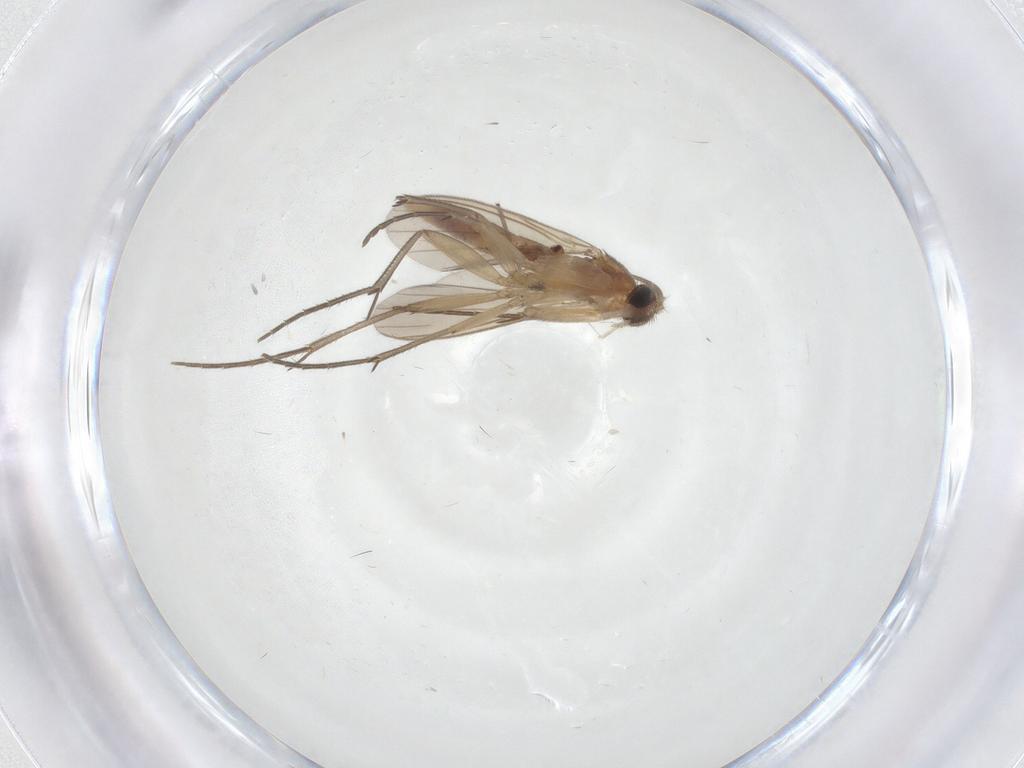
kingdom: Animalia
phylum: Arthropoda
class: Insecta
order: Diptera
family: Mycetophilidae
